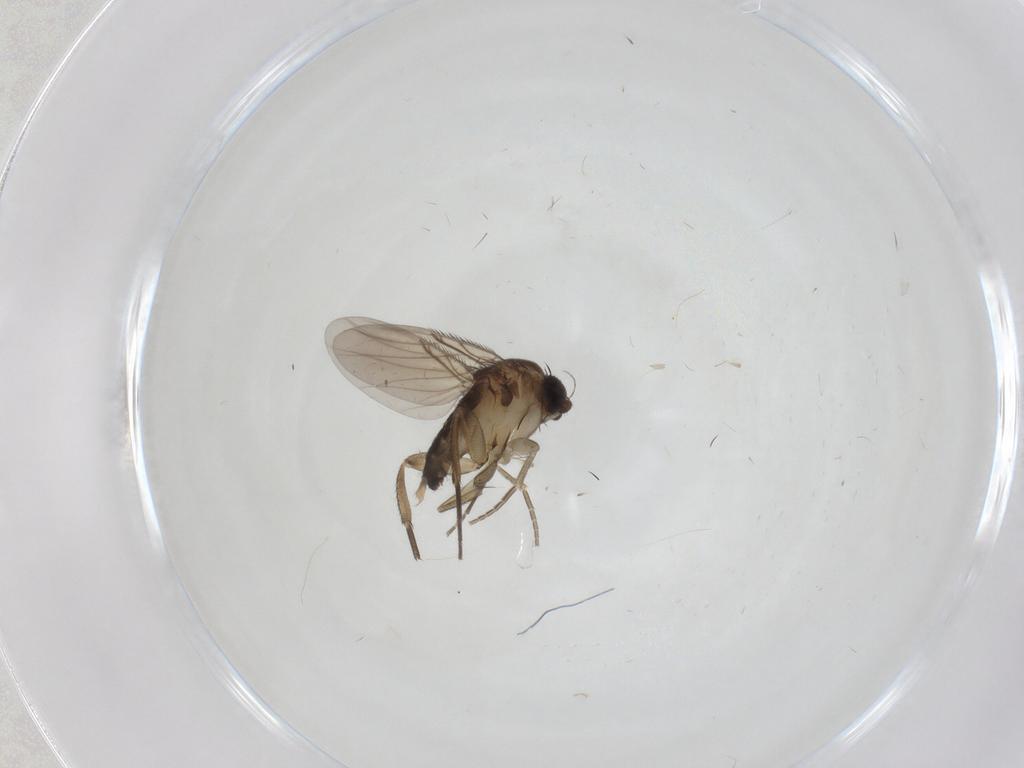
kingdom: Animalia
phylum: Arthropoda
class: Insecta
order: Diptera
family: Phoridae
